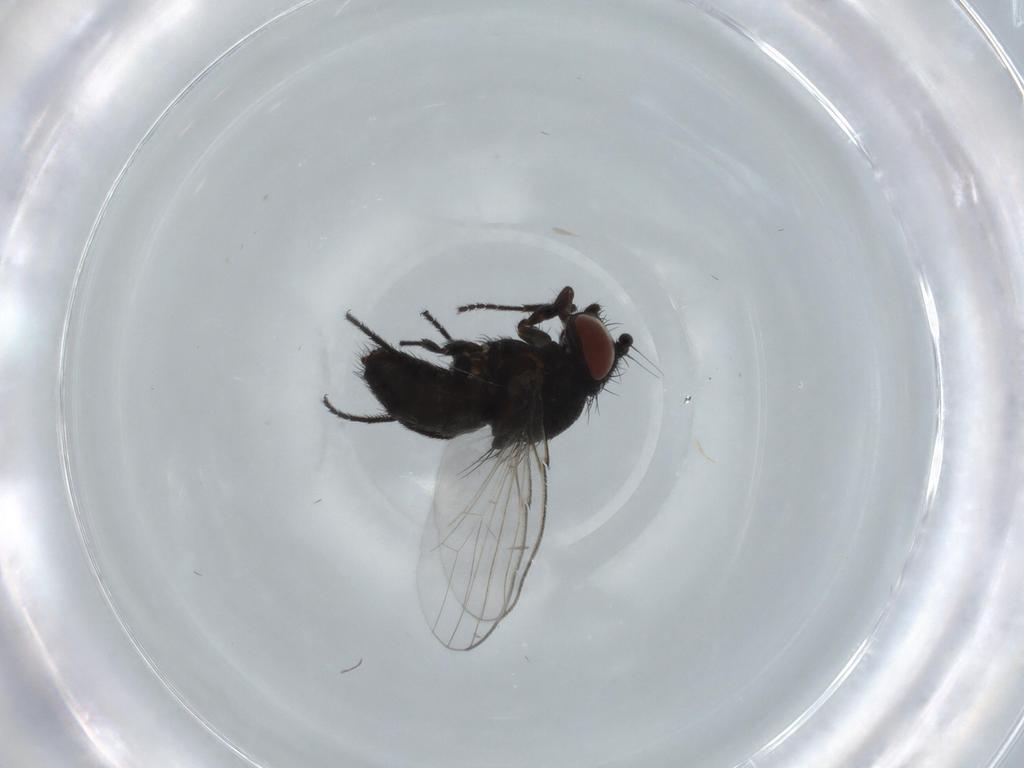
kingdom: Animalia
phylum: Arthropoda
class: Insecta
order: Diptera
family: Milichiidae
